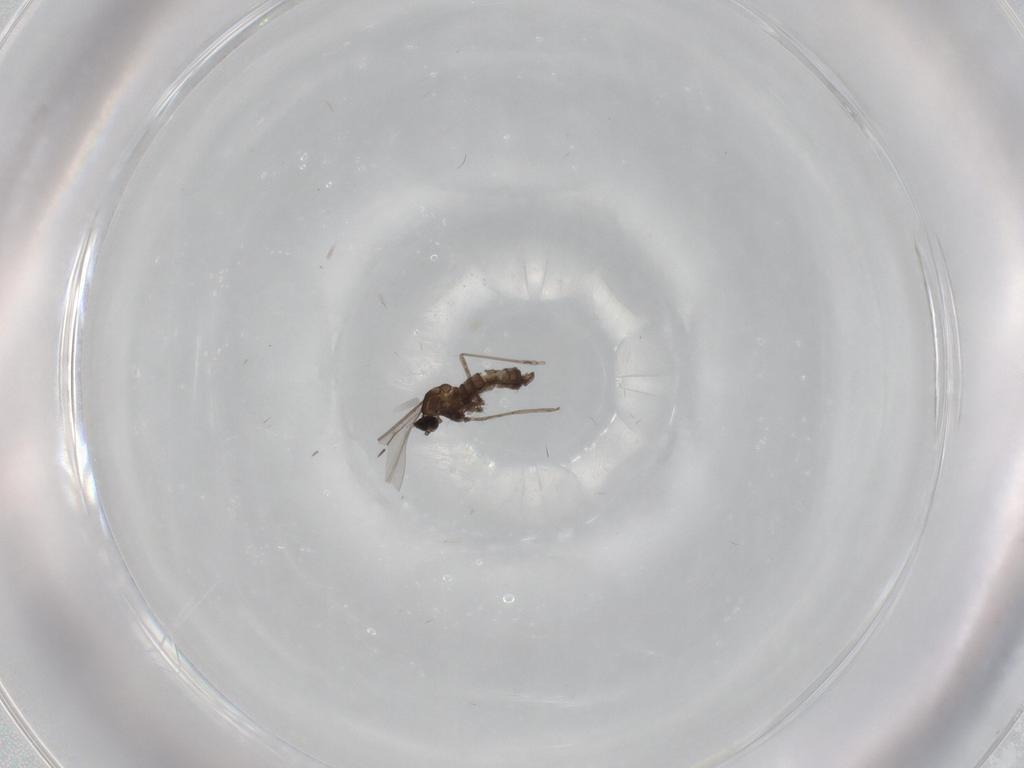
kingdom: Animalia
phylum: Arthropoda
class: Insecta
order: Diptera
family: Cecidomyiidae
